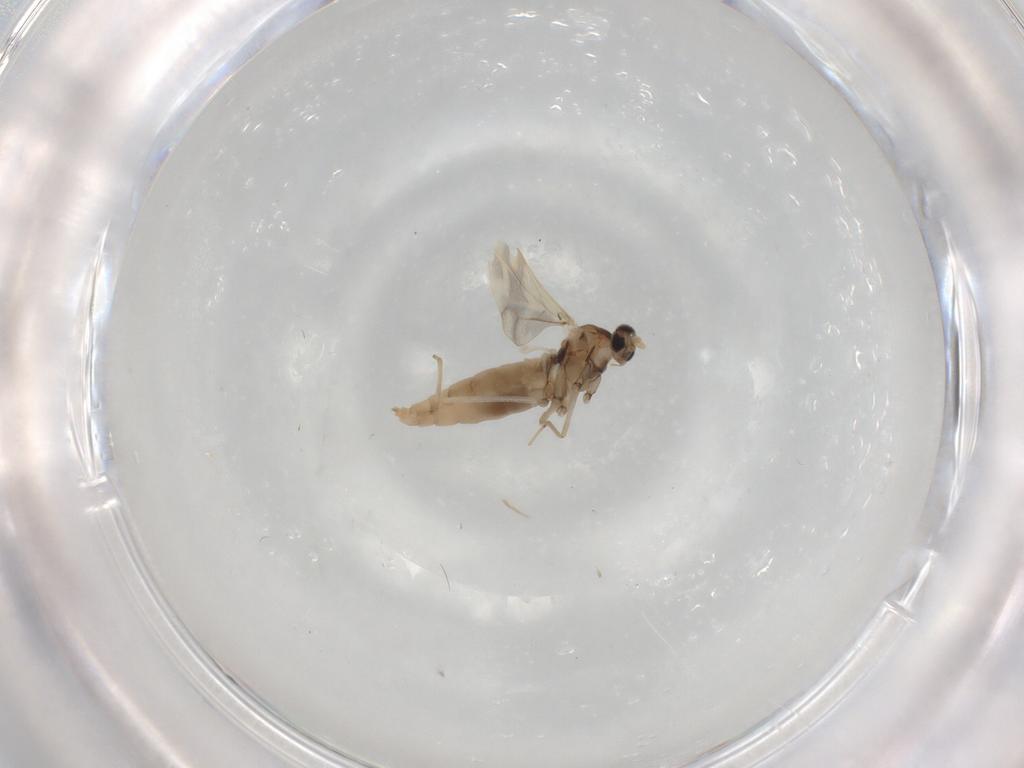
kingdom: Animalia
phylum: Arthropoda
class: Insecta
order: Diptera
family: Cecidomyiidae
